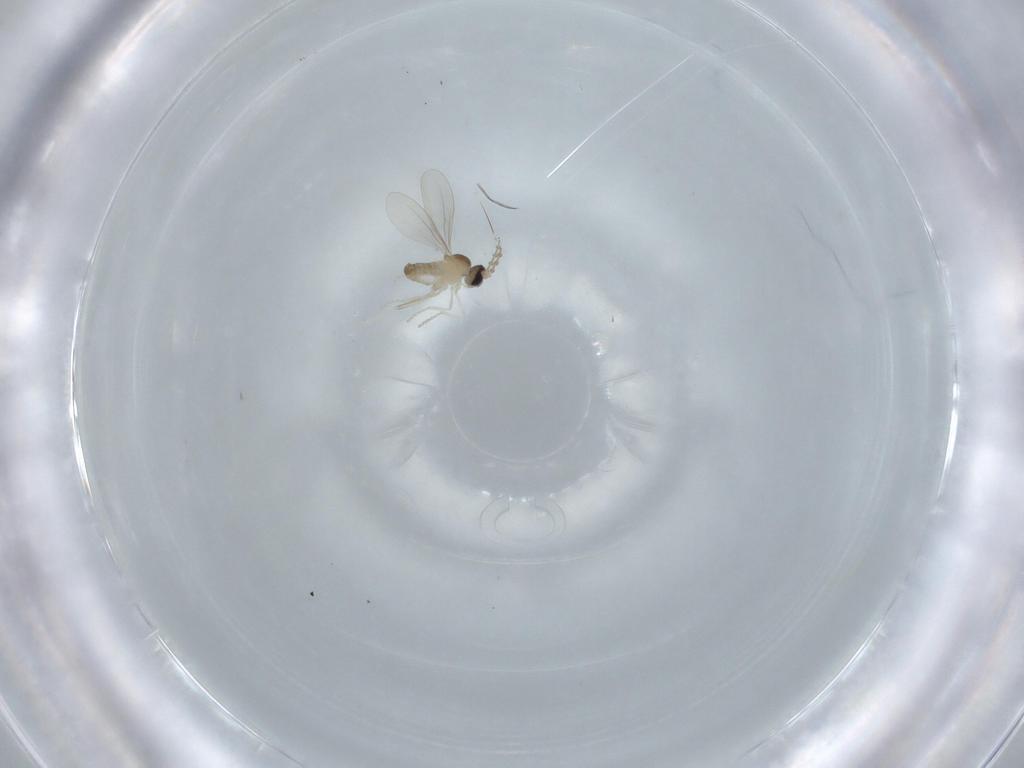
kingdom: Animalia
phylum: Arthropoda
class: Insecta
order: Diptera
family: Cecidomyiidae
